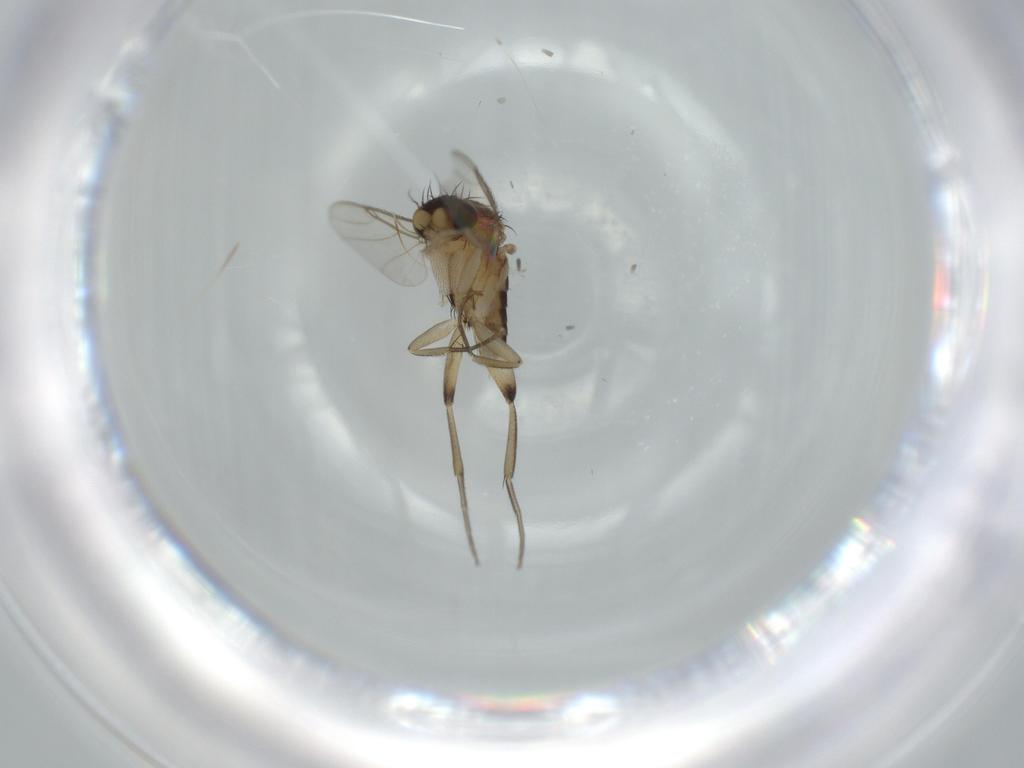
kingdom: Animalia
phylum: Arthropoda
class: Insecta
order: Diptera
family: Phoridae
